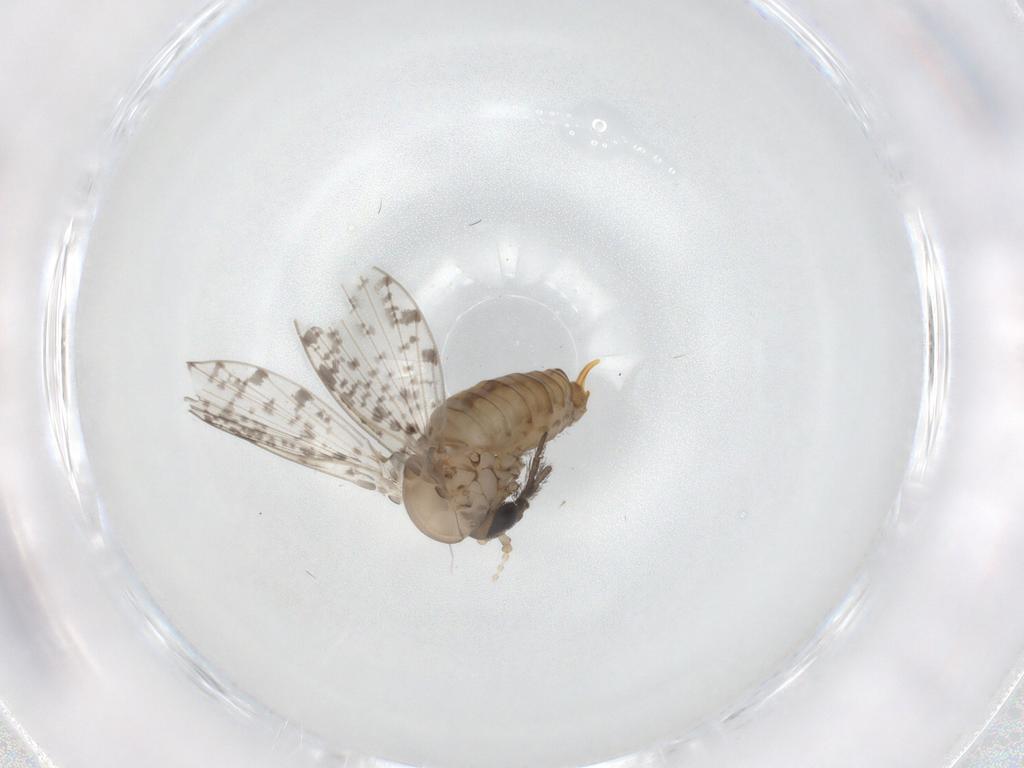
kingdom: Animalia
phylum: Arthropoda
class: Insecta
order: Diptera
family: Psychodidae
